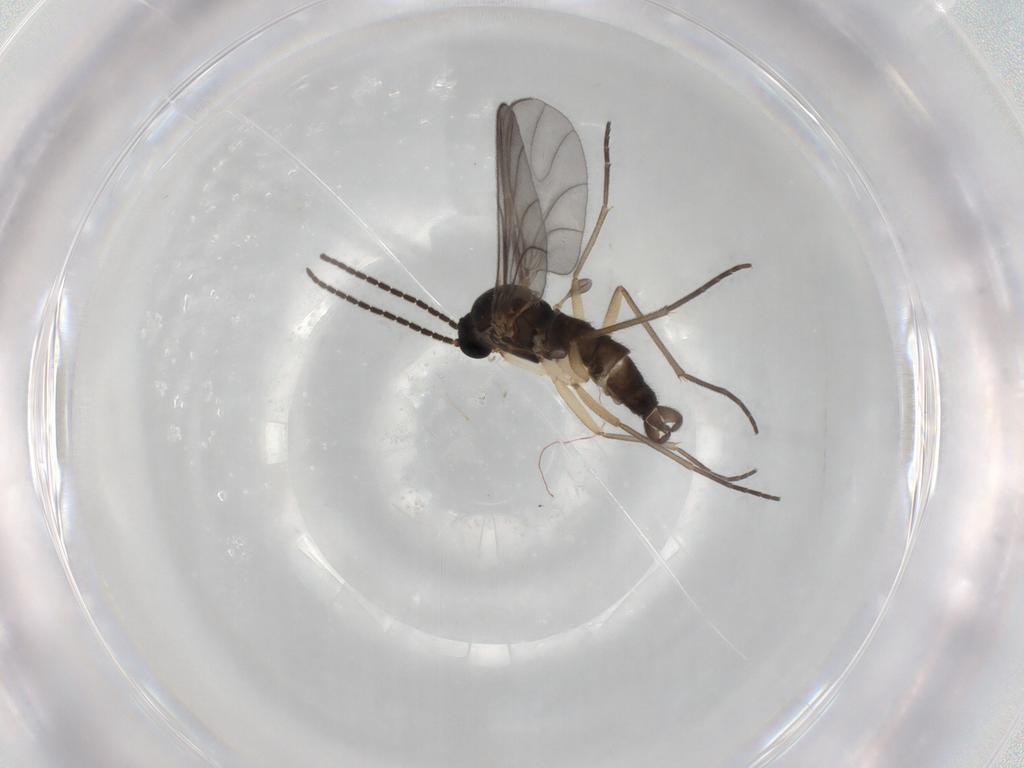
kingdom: Animalia
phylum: Arthropoda
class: Insecta
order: Diptera
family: Sciaridae
